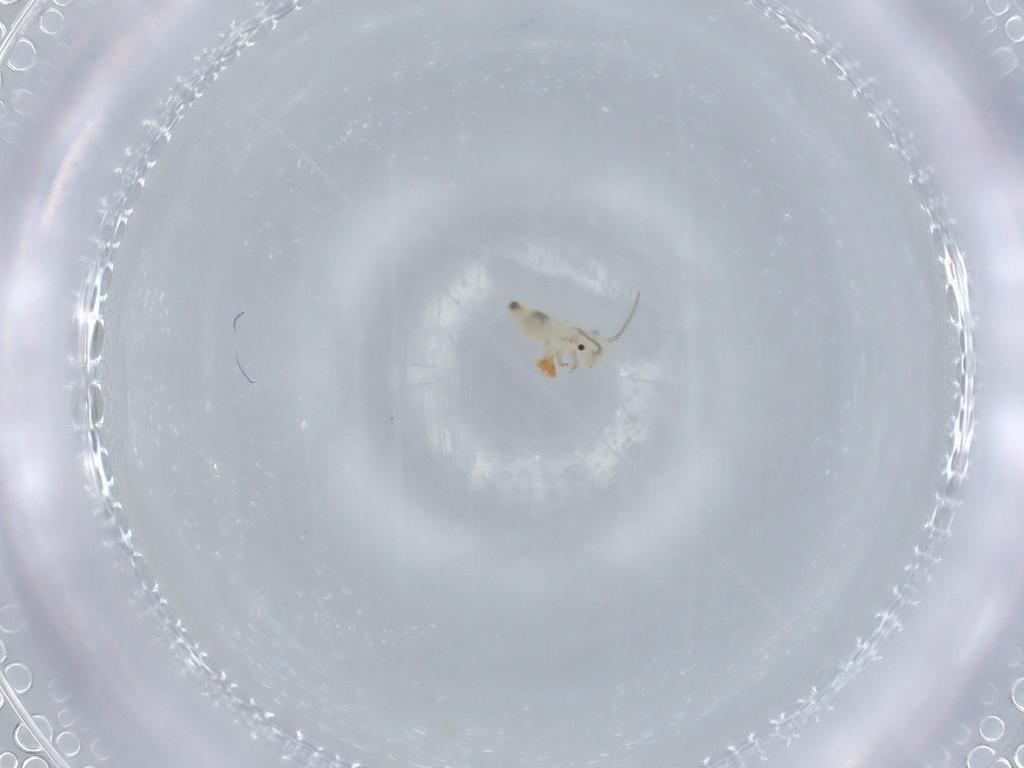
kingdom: Animalia
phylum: Arthropoda
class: Insecta
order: Psocodea
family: Caeciliusidae
